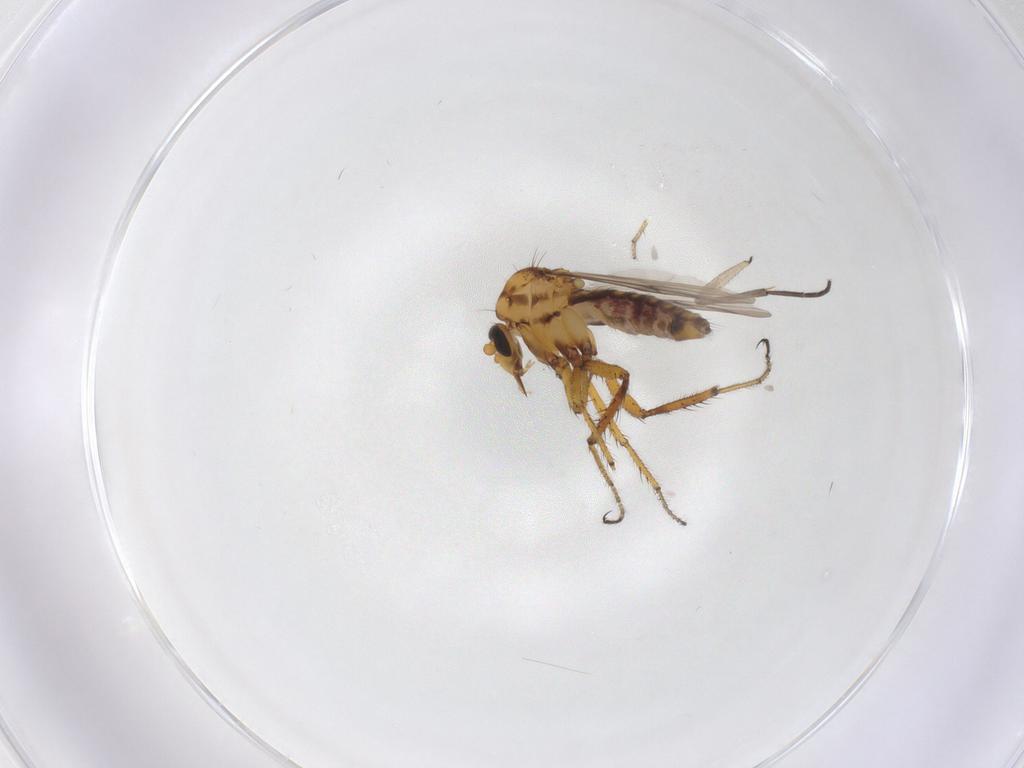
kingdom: Animalia
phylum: Arthropoda
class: Insecta
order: Diptera
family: Ceratopogonidae
